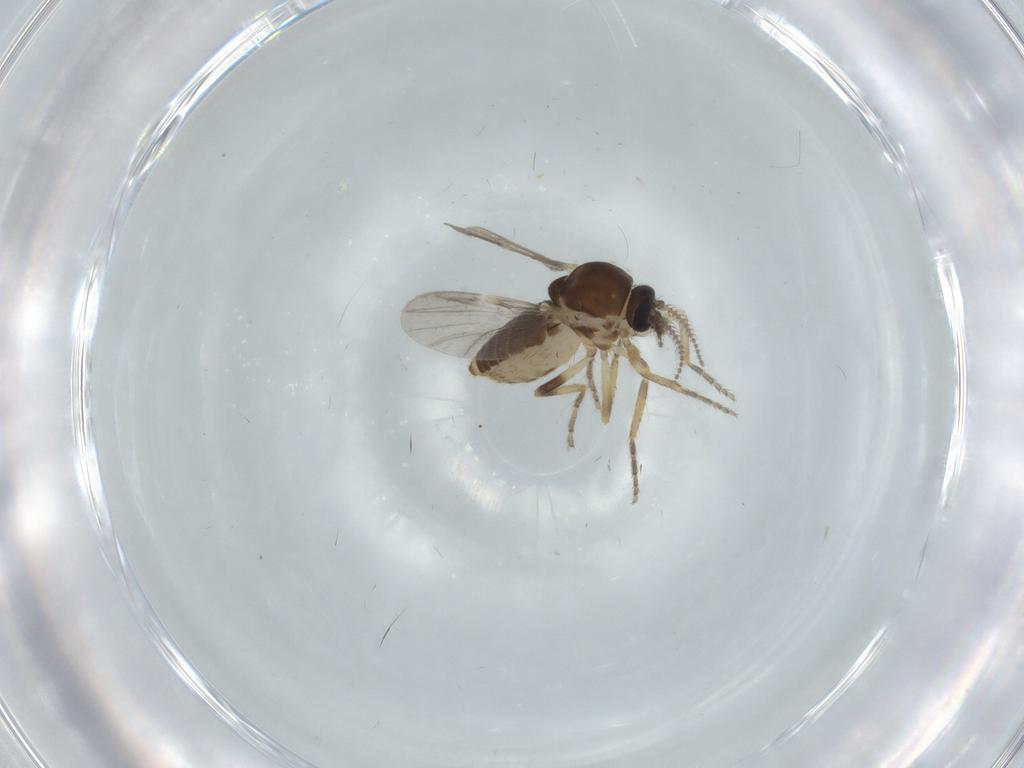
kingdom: Animalia
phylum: Arthropoda
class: Insecta
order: Diptera
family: Ceratopogonidae
